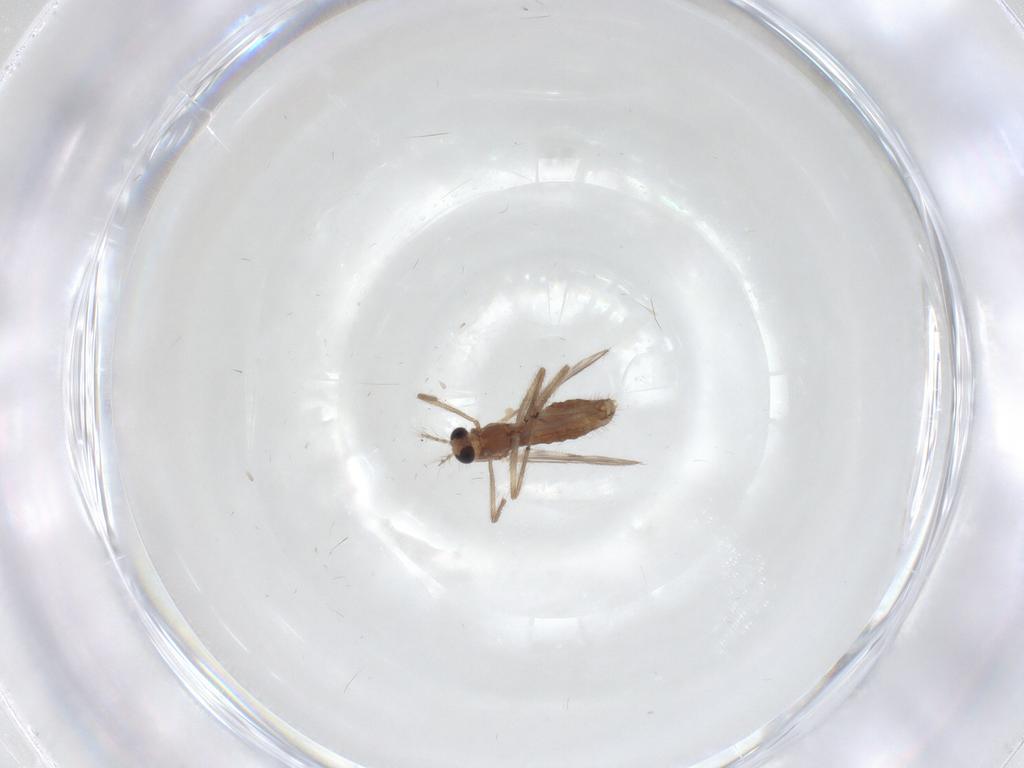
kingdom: Animalia
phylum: Arthropoda
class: Insecta
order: Diptera
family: Chironomidae
